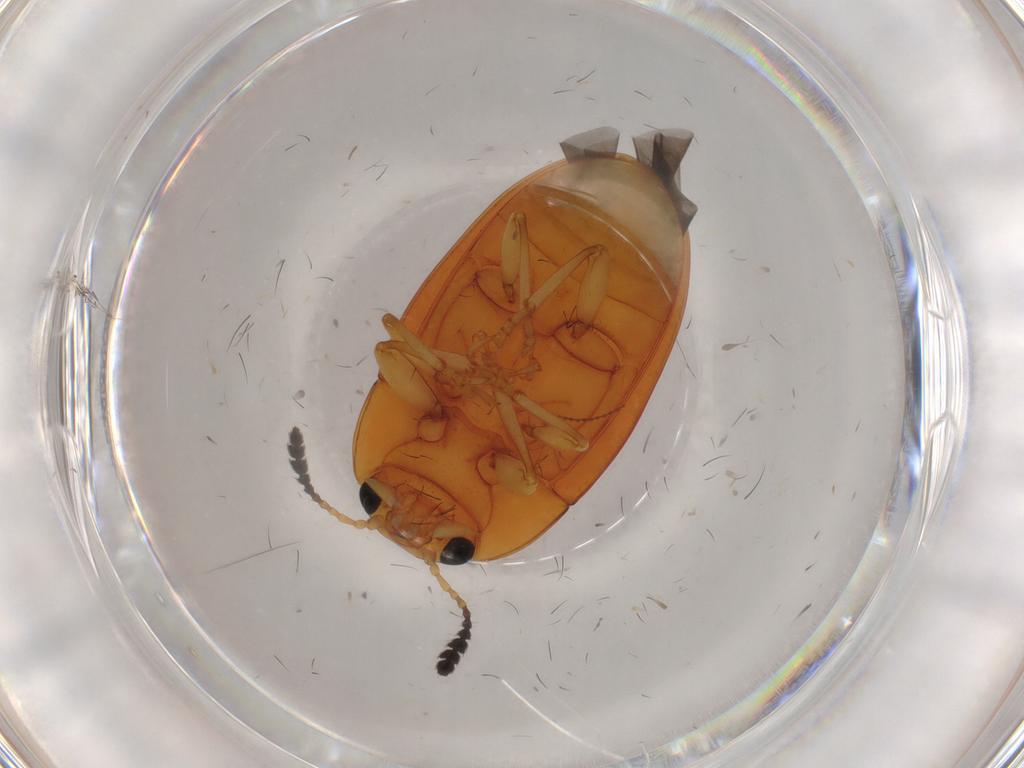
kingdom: Animalia
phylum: Arthropoda
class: Insecta
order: Coleoptera
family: Erotylidae
